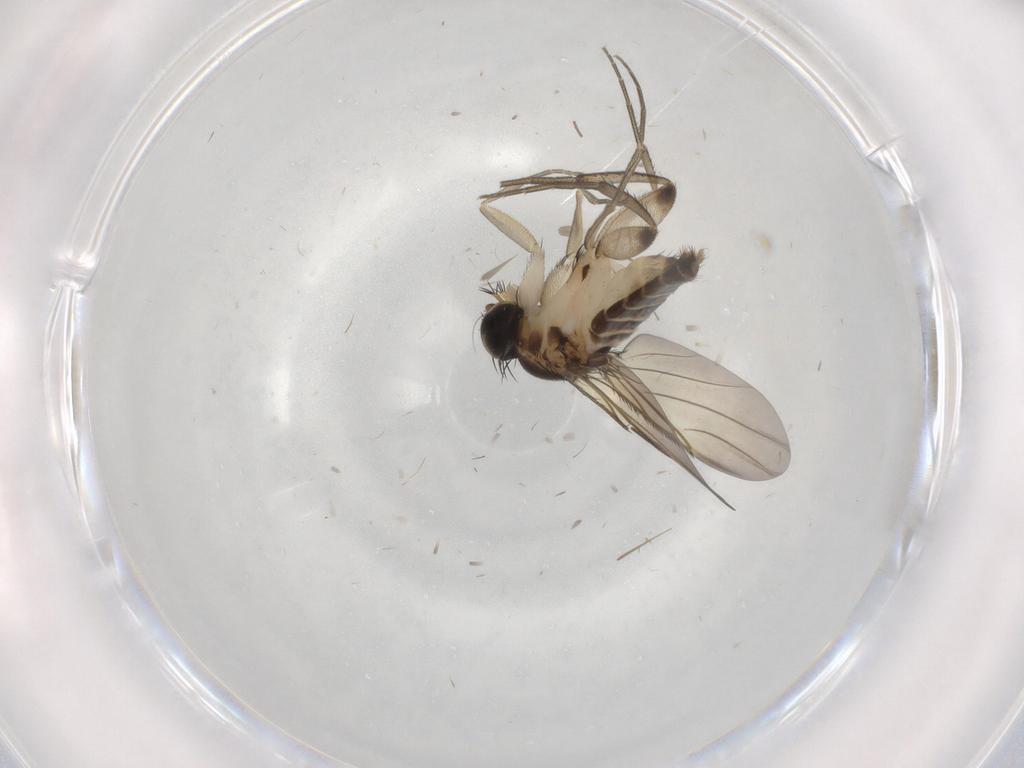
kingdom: Animalia
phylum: Arthropoda
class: Insecta
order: Diptera
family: Phoridae
